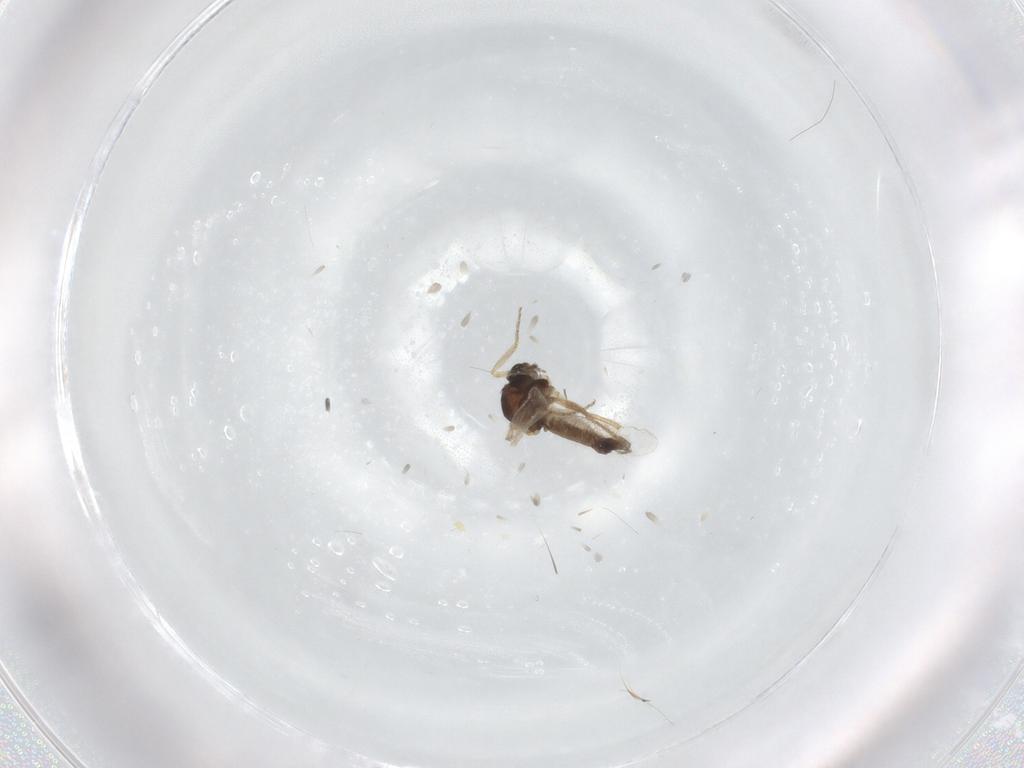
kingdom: Animalia
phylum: Arthropoda
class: Insecta
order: Diptera
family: Ceratopogonidae
